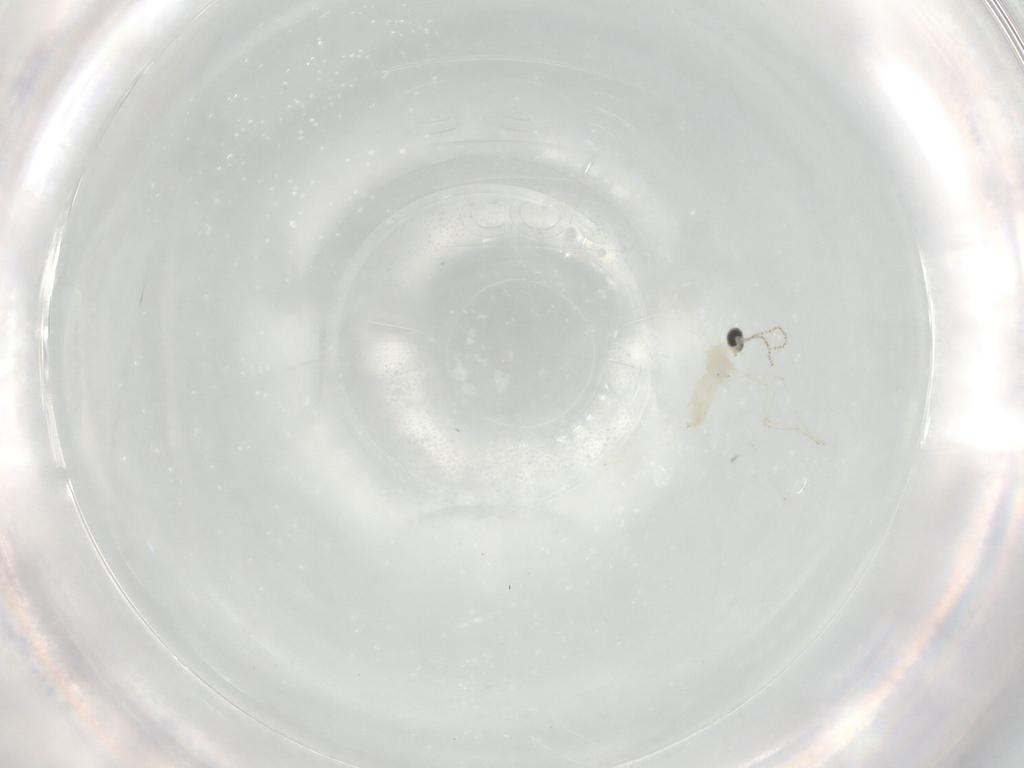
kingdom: Animalia
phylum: Arthropoda
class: Insecta
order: Diptera
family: Cecidomyiidae
